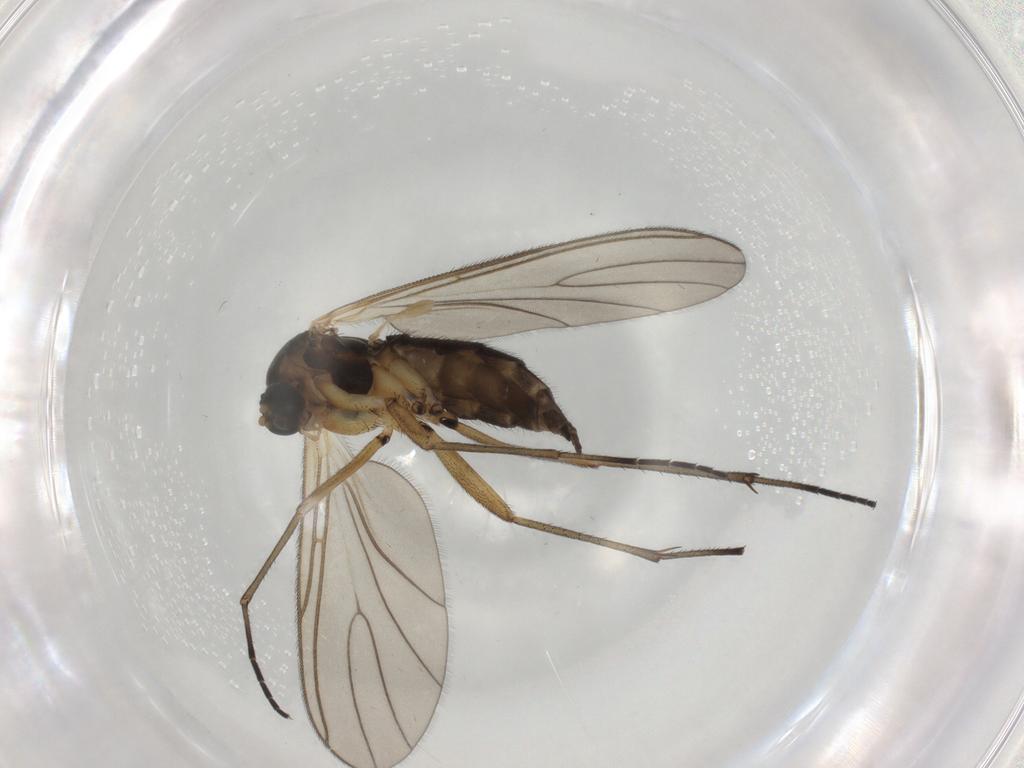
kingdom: Animalia
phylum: Arthropoda
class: Insecta
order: Diptera
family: Sciaridae
